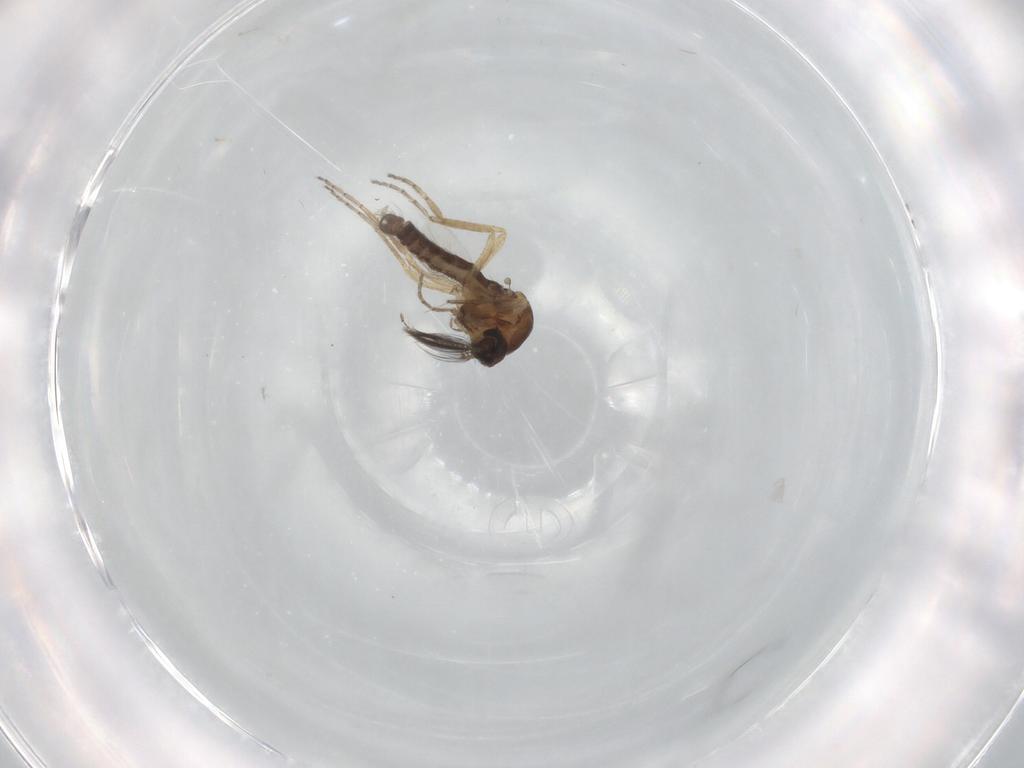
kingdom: Animalia
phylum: Arthropoda
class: Insecta
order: Diptera
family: Ceratopogonidae
